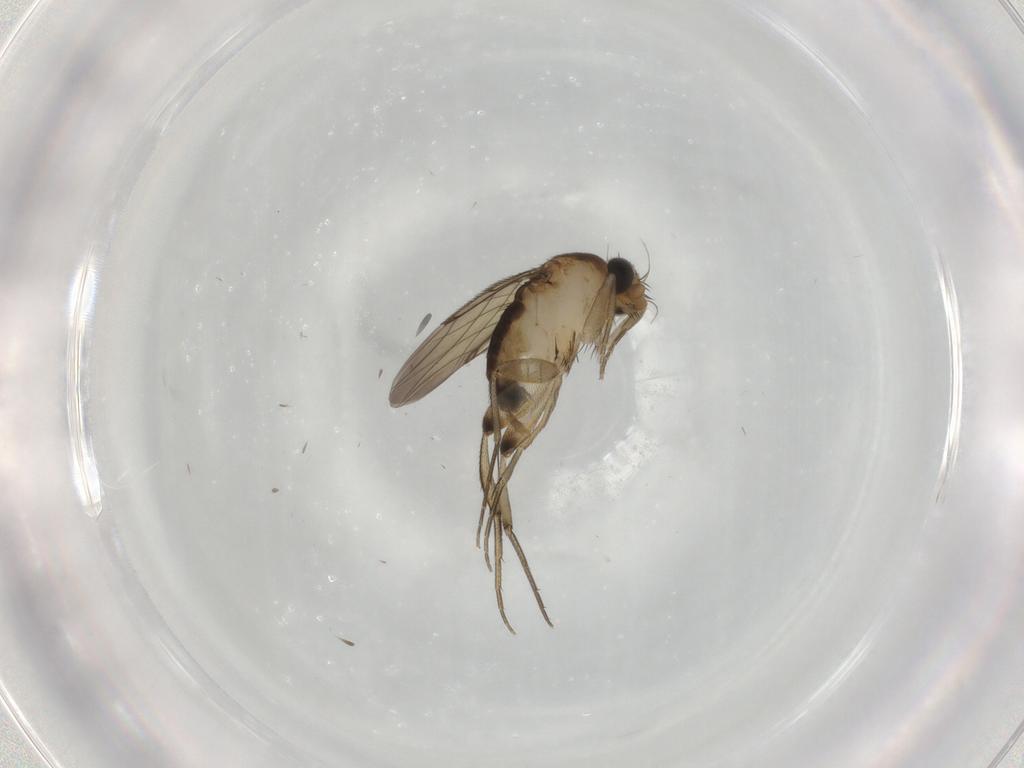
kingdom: Animalia
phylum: Arthropoda
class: Insecta
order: Diptera
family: Phoridae
